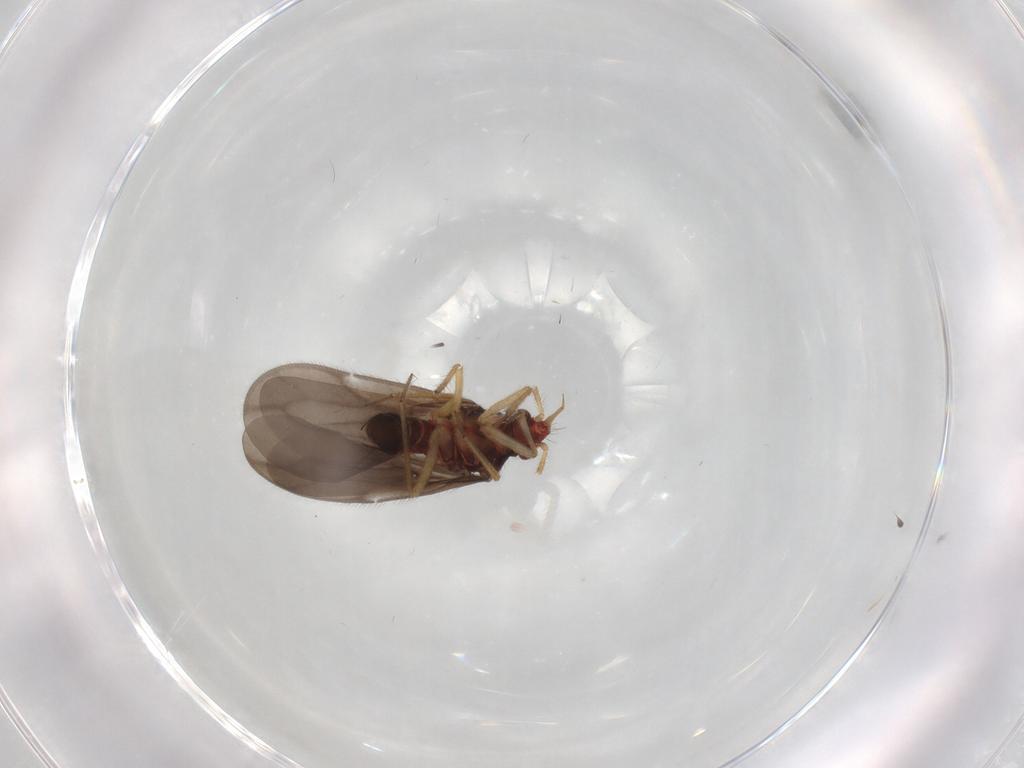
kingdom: Animalia
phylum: Arthropoda
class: Insecta
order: Hemiptera
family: Ceratocombidae
